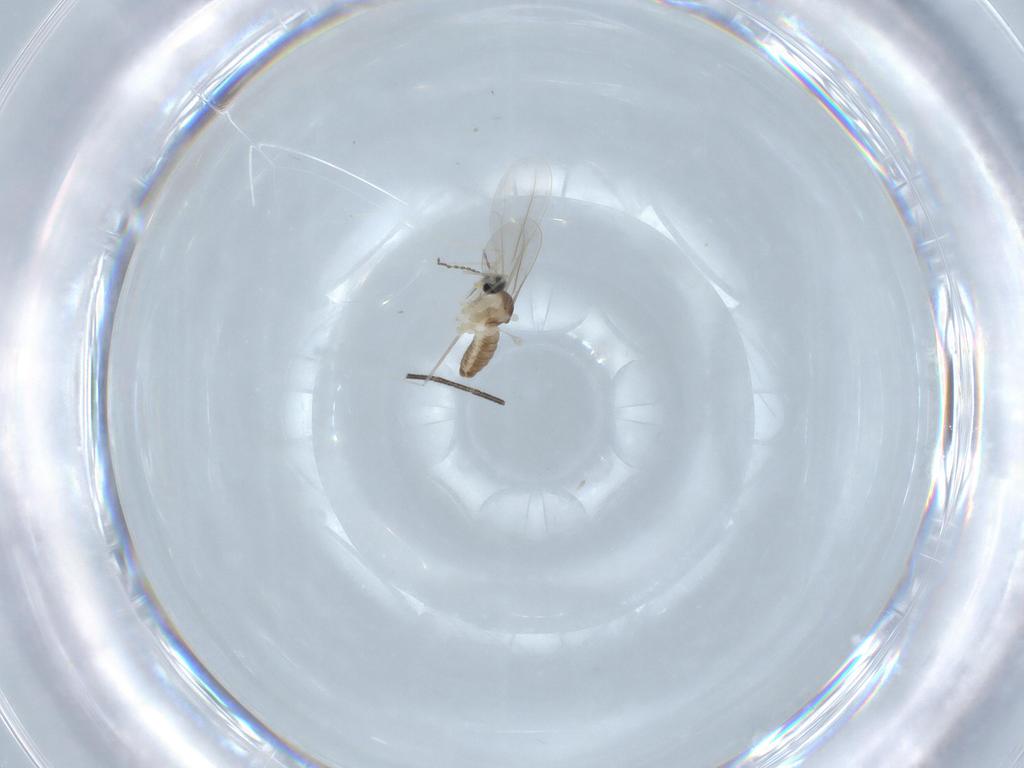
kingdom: Animalia
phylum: Arthropoda
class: Insecta
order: Diptera
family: Cecidomyiidae
